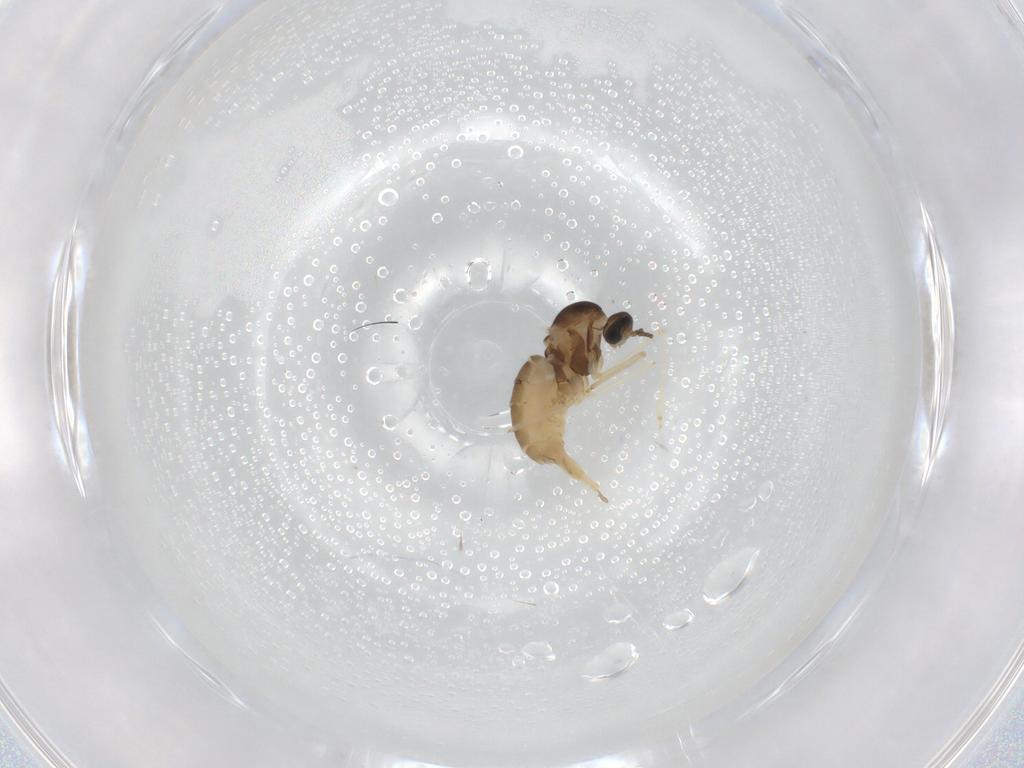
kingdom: Animalia
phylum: Arthropoda
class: Insecta
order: Diptera
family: Cecidomyiidae
